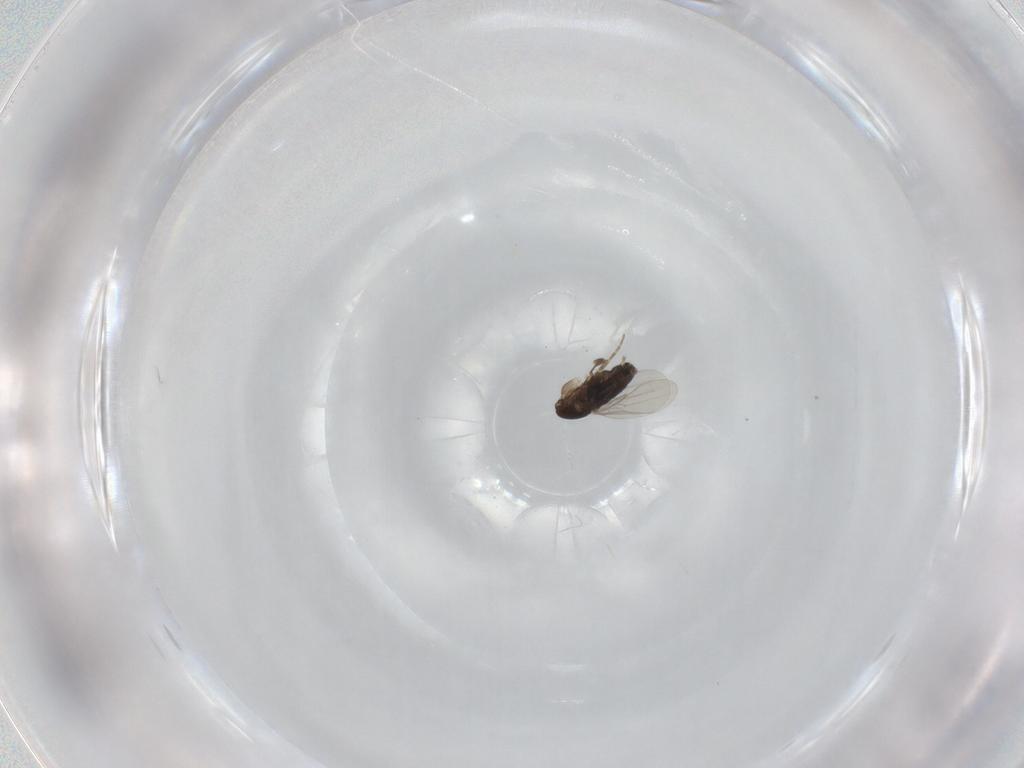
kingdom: Animalia
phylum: Arthropoda
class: Insecta
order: Diptera
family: Phoridae
